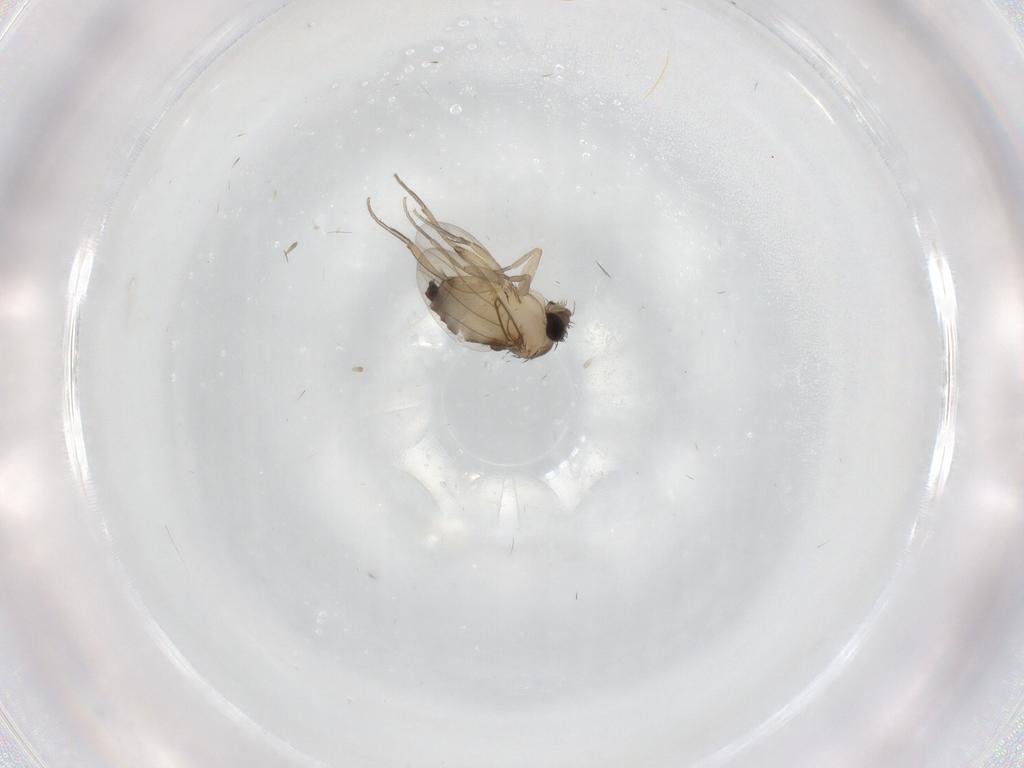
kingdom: Animalia
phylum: Arthropoda
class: Insecta
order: Diptera
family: Phoridae
